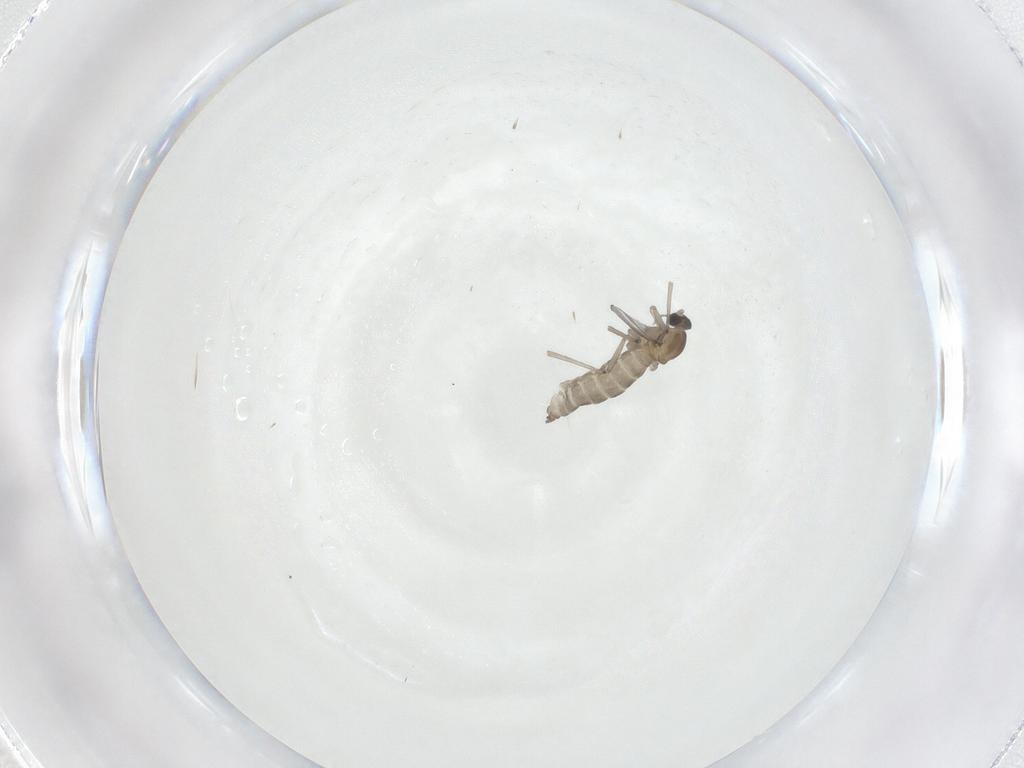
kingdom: Animalia
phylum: Arthropoda
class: Insecta
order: Diptera
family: Cecidomyiidae
